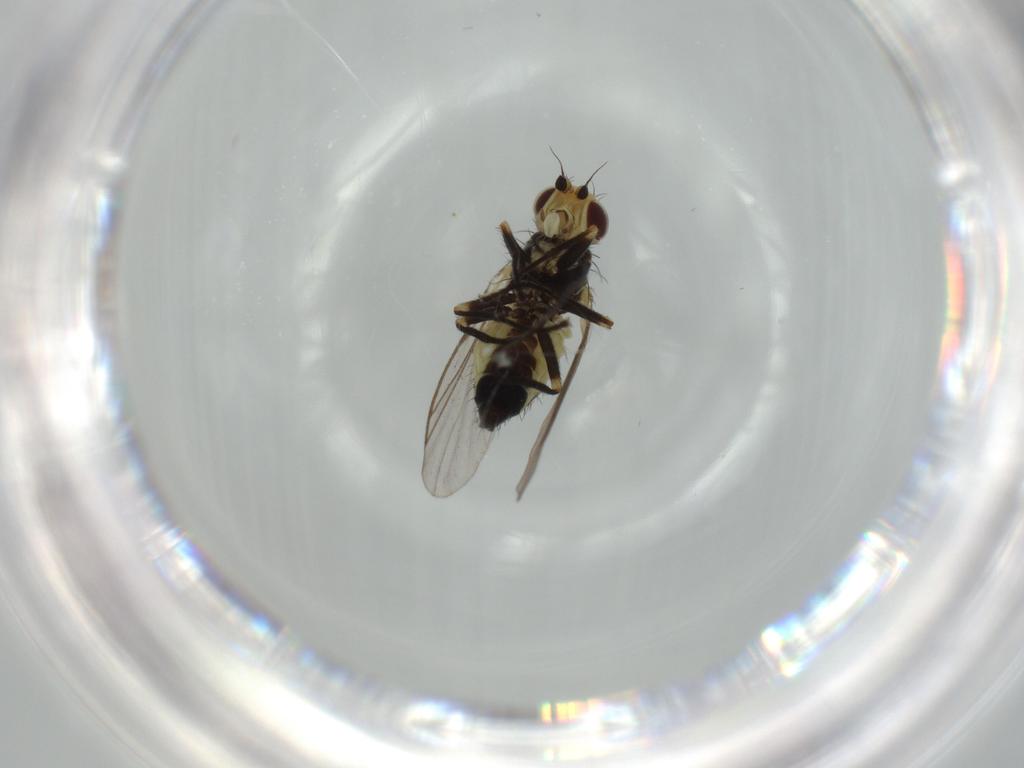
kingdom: Animalia
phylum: Arthropoda
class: Insecta
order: Diptera
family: Agromyzidae
